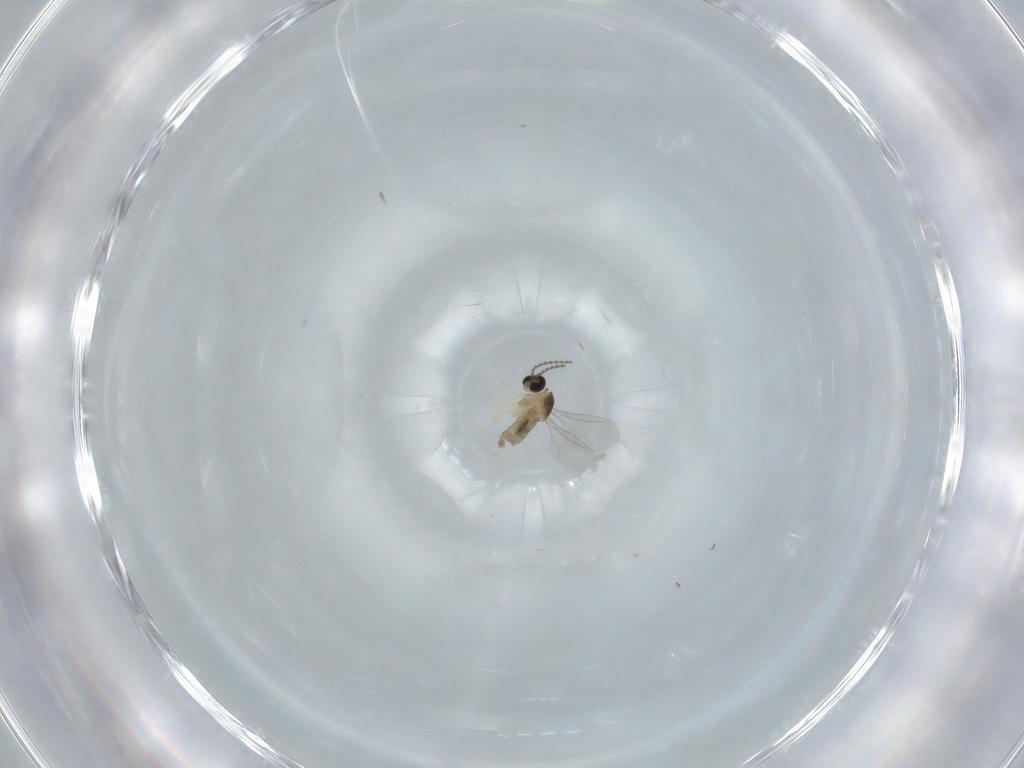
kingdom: Animalia
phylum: Arthropoda
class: Insecta
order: Diptera
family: Cecidomyiidae
